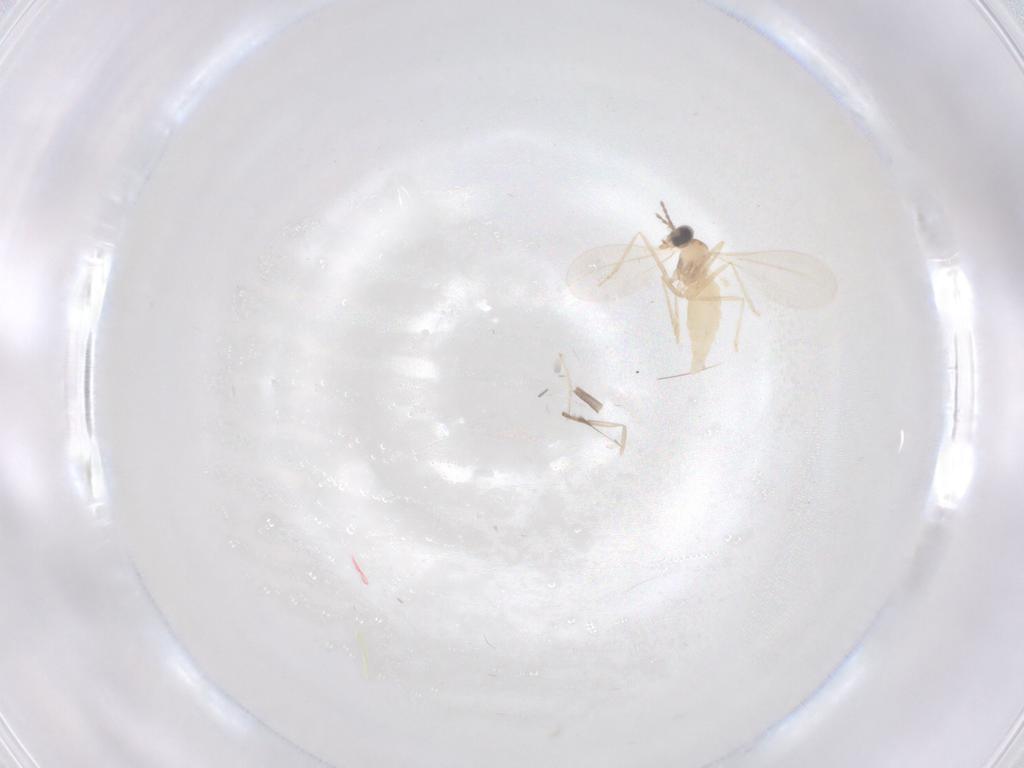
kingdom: Animalia
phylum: Arthropoda
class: Insecta
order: Diptera
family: Cecidomyiidae
